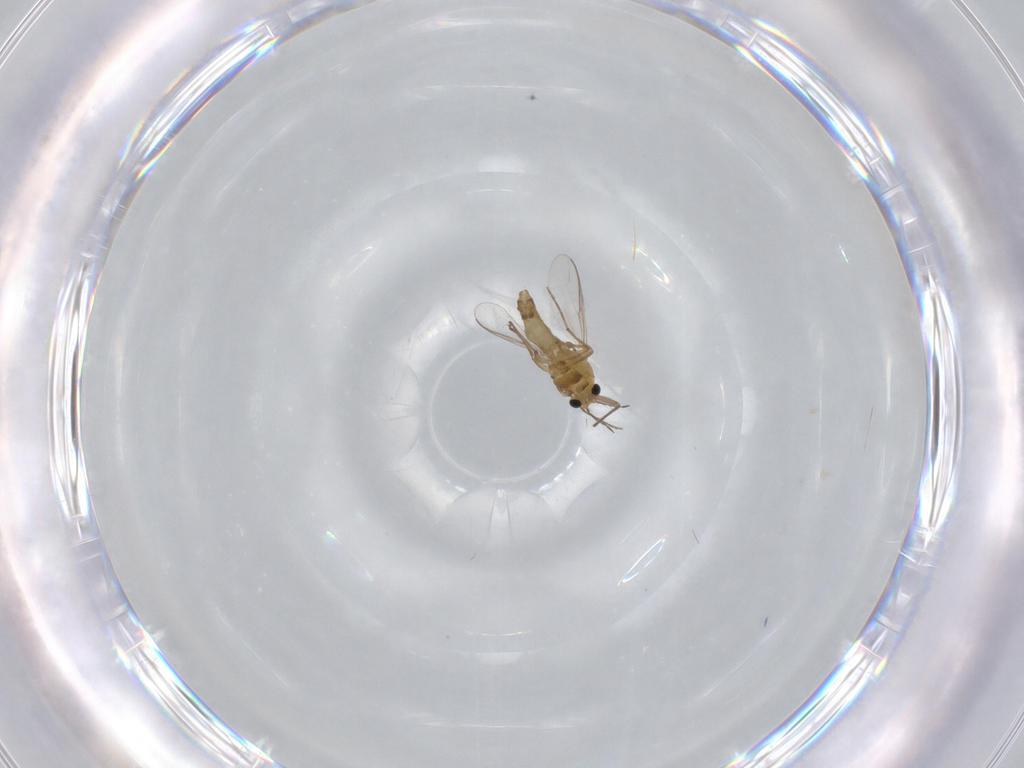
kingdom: Animalia
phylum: Arthropoda
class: Insecta
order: Diptera
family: Chironomidae
